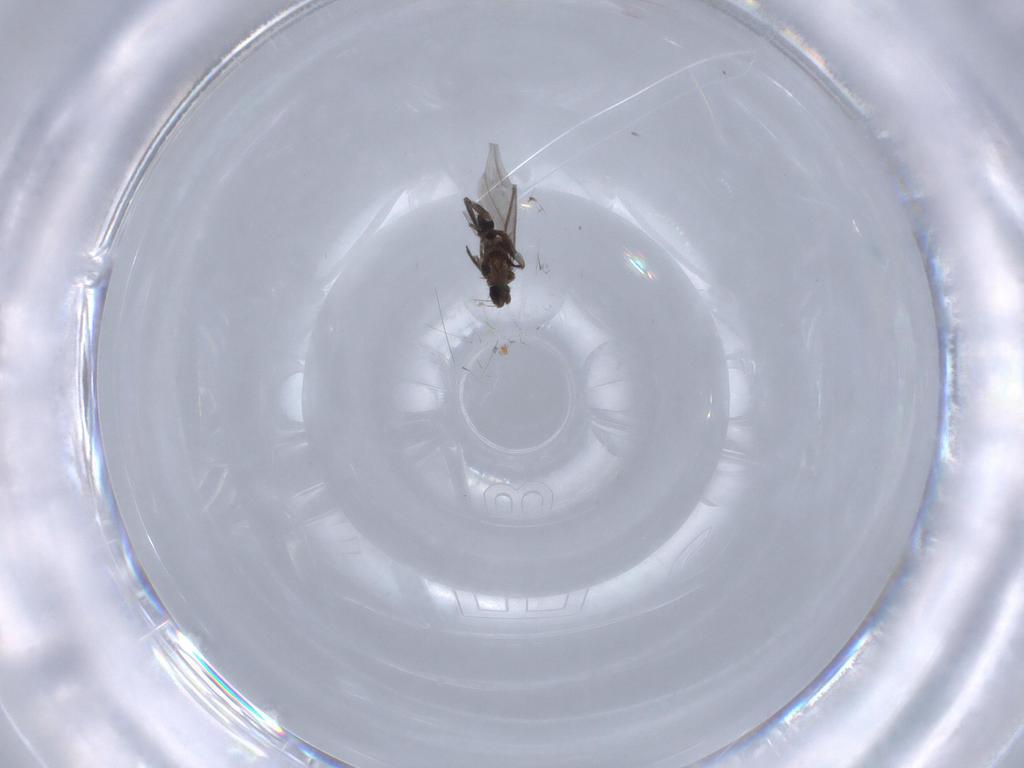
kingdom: Animalia
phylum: Arthropoda
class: Insecta
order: Diptera
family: Phoridae
